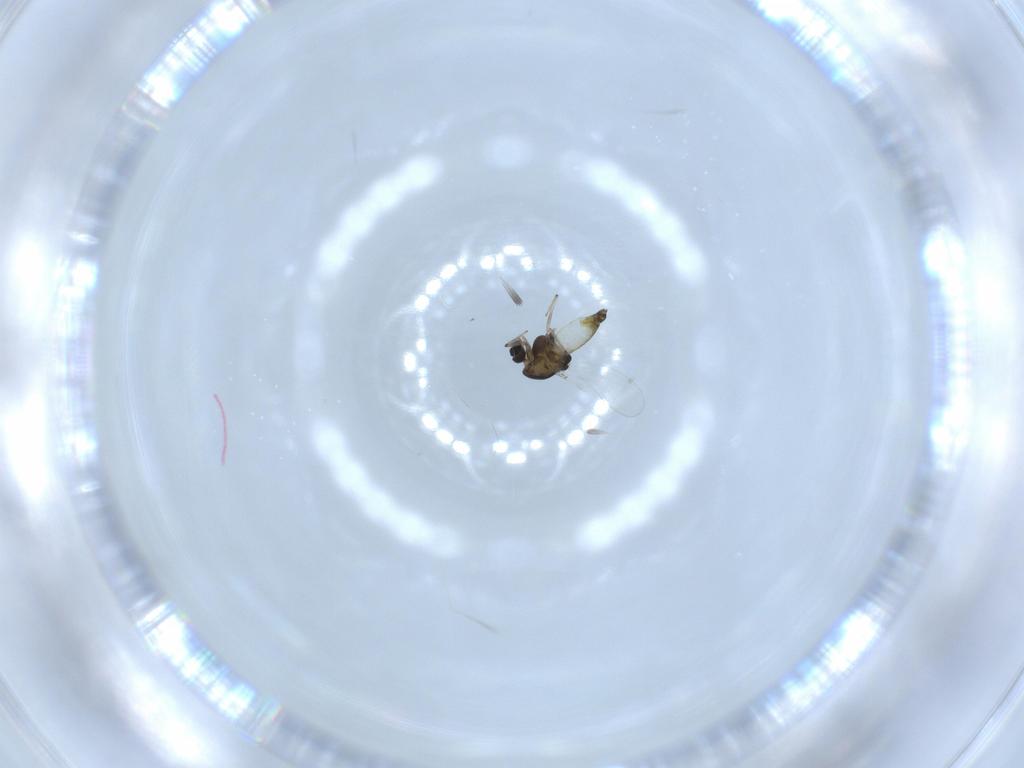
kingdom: Animalia
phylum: Arthropoda
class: Insecta
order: Diptera
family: Chironomidae
